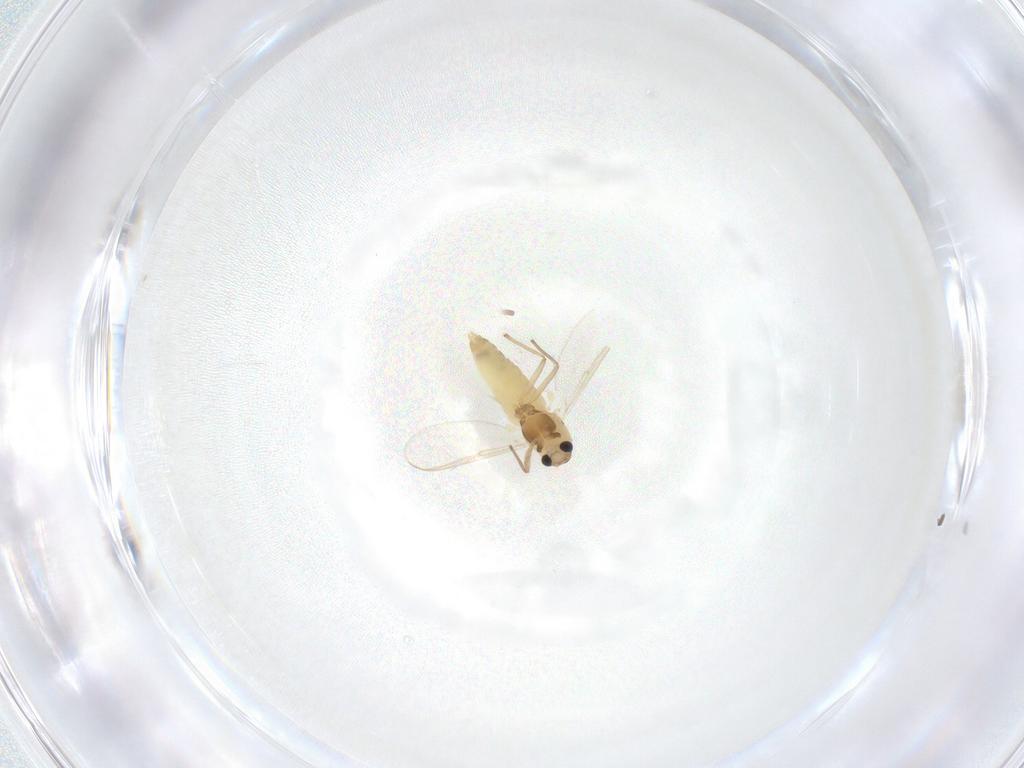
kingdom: Animalia
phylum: Arthropoda
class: Insecta
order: Diptera
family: Chironomidae
